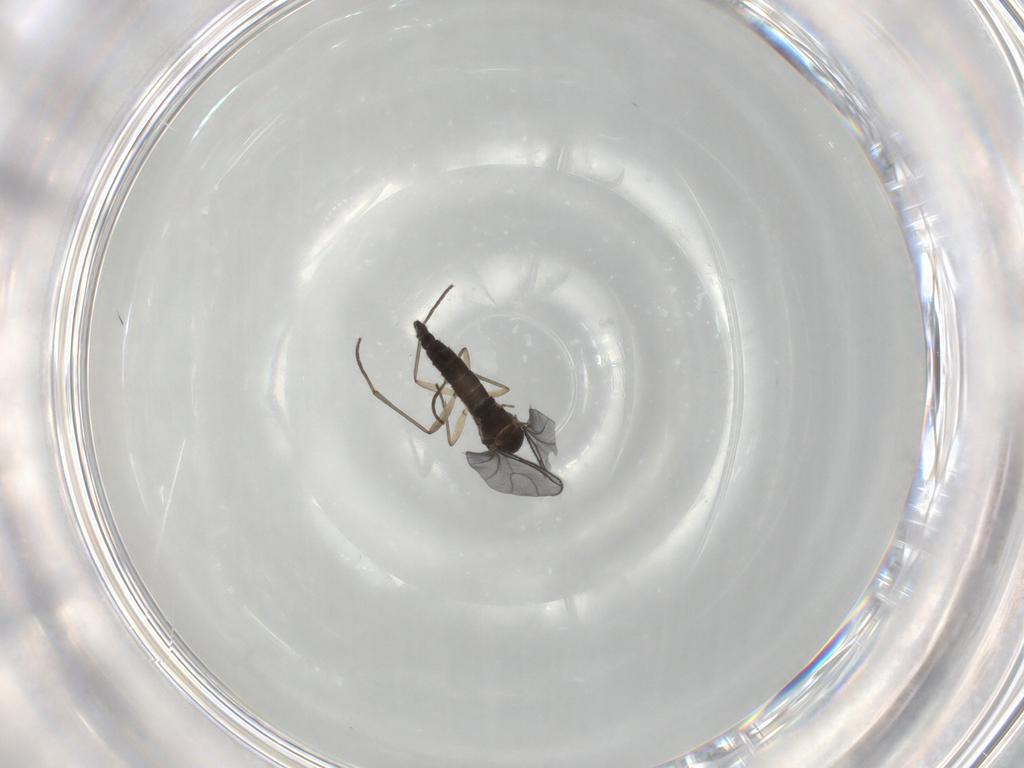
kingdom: Animalia
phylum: Arthropoda
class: Insecta
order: Diptera
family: Sciaridae
